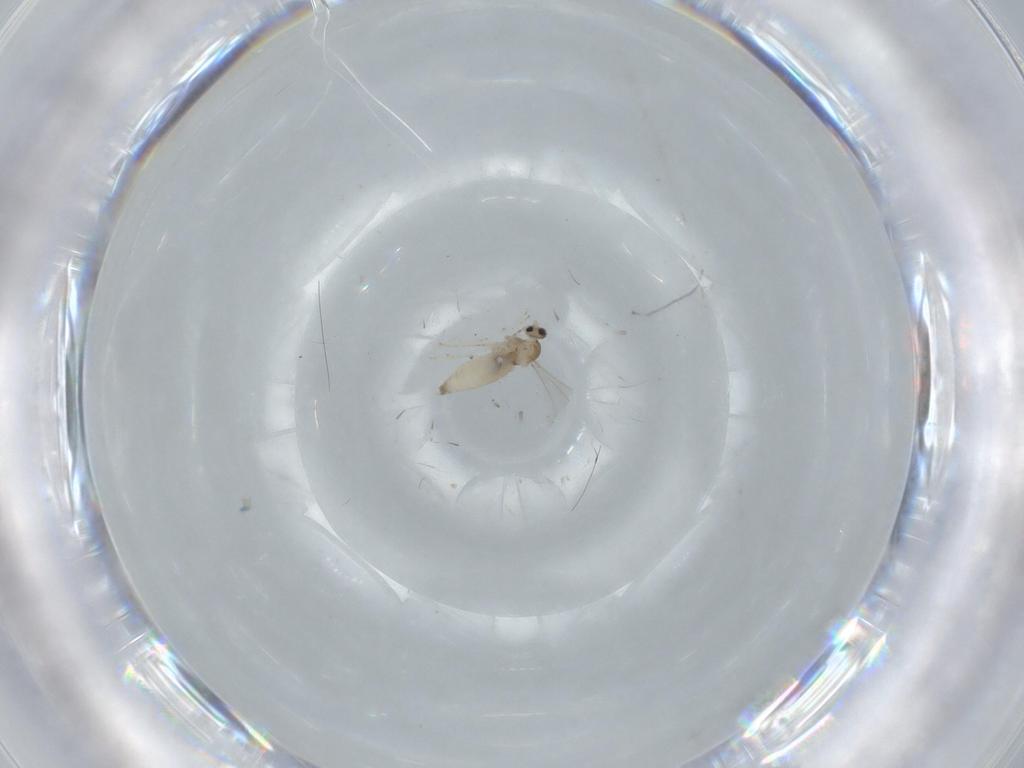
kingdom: Animalia
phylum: Arthropoda
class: Insecta
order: Diptera
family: Cecidomyiidae
